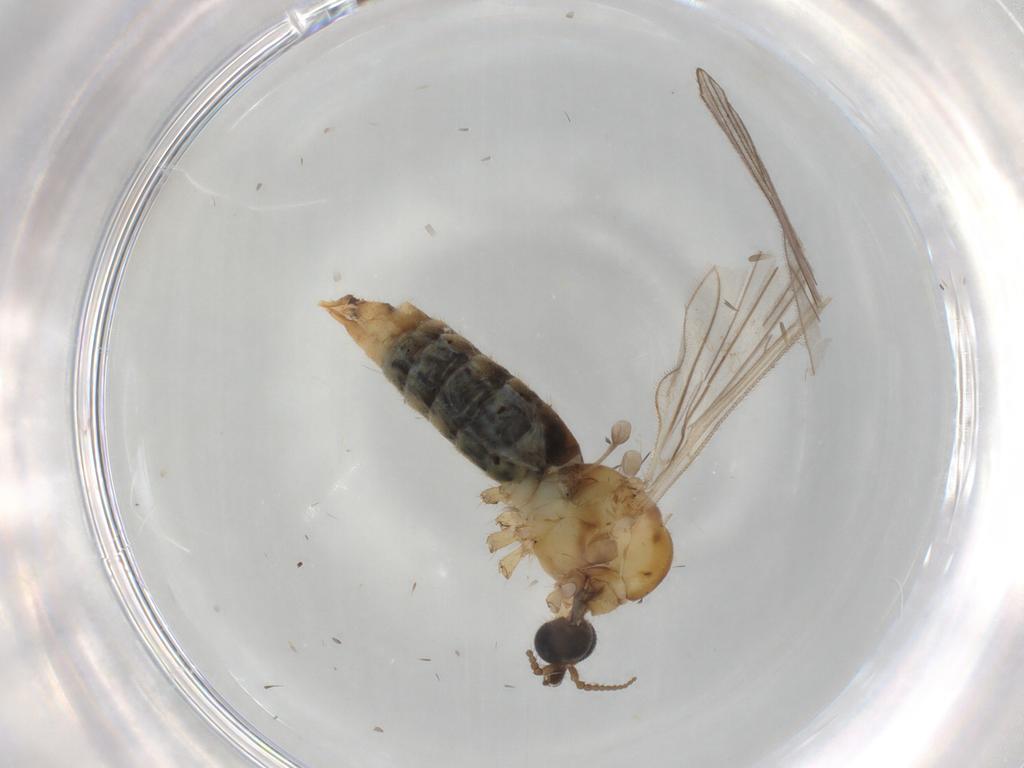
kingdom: Animalia
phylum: Arthropoda
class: Insecta
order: Diptera
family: Limoniidae
